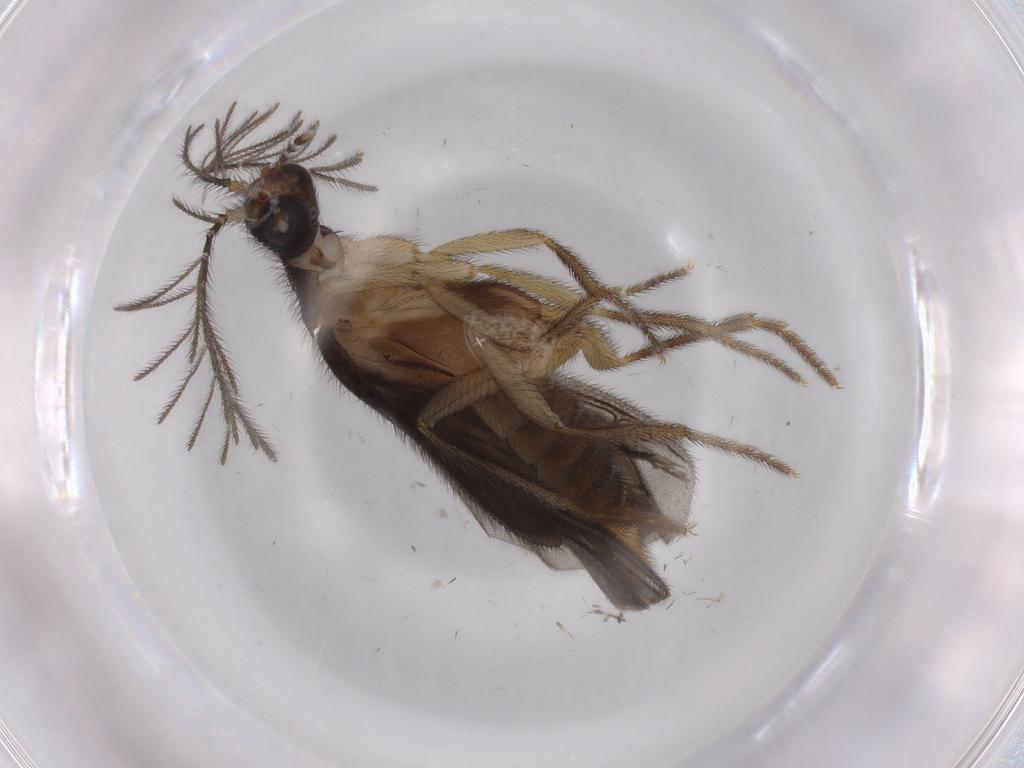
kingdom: Animalia
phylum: Arthropoda
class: Insecta
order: Coleoptera
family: Phengodidae
